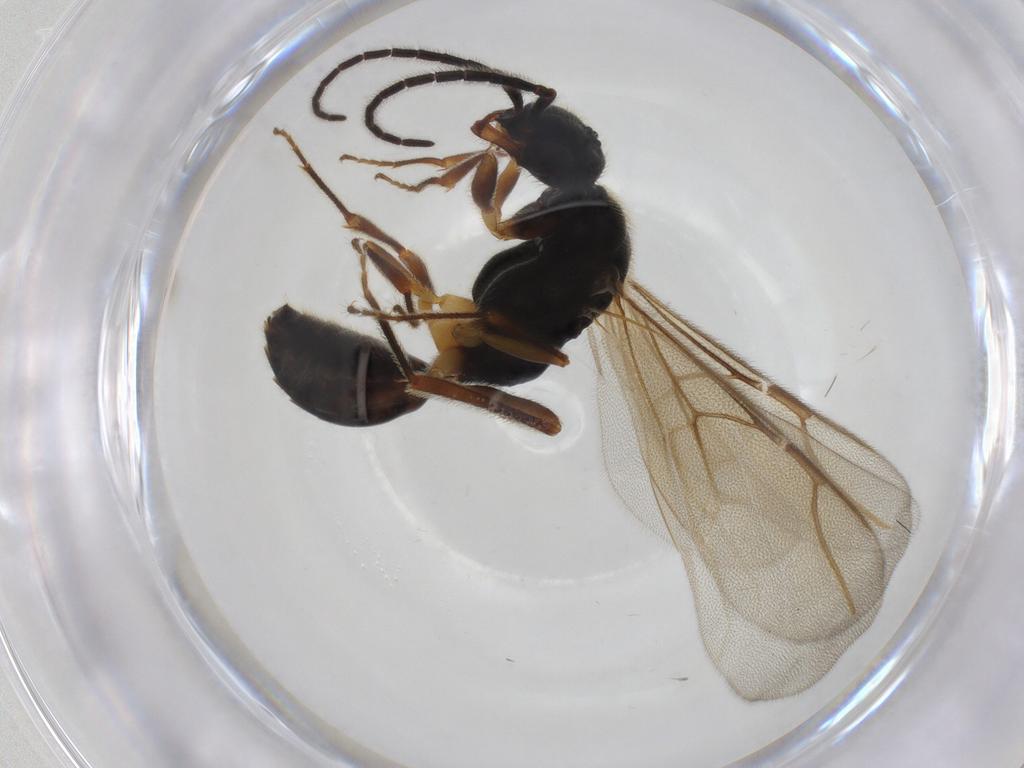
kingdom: Animalia
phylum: Arthropoda
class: Insecta
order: Hymenoptera
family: Bethylidae
